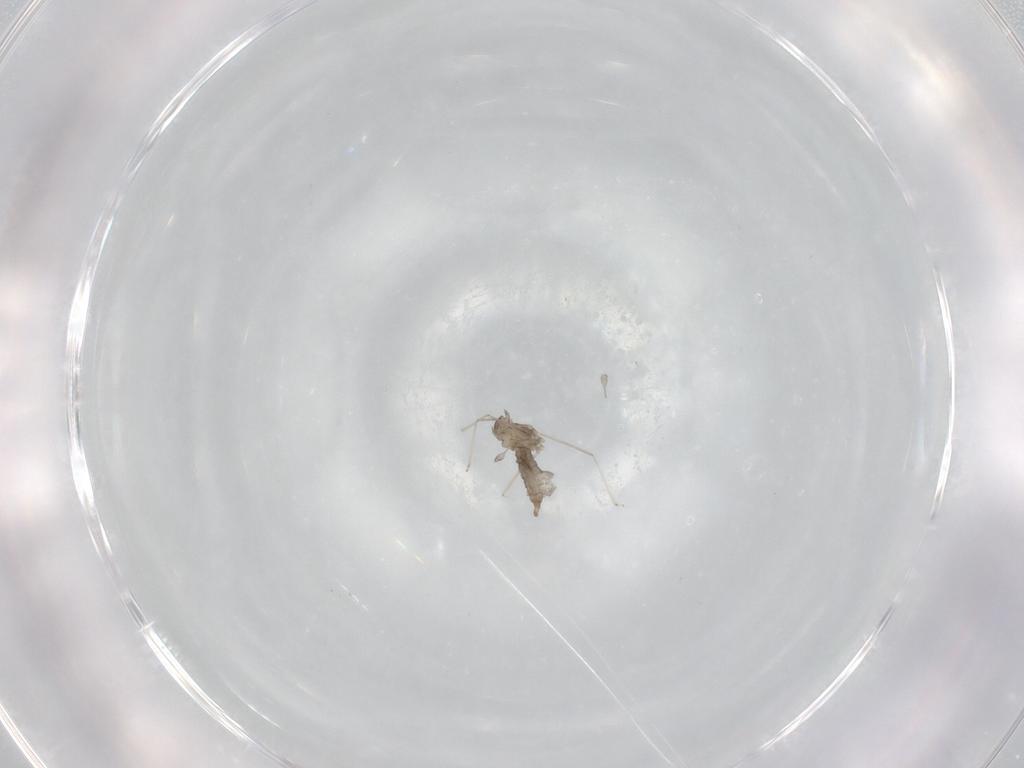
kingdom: Animalia
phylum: Arthropoda
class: Insecta
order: Diptera
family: Cecidomyiidae
